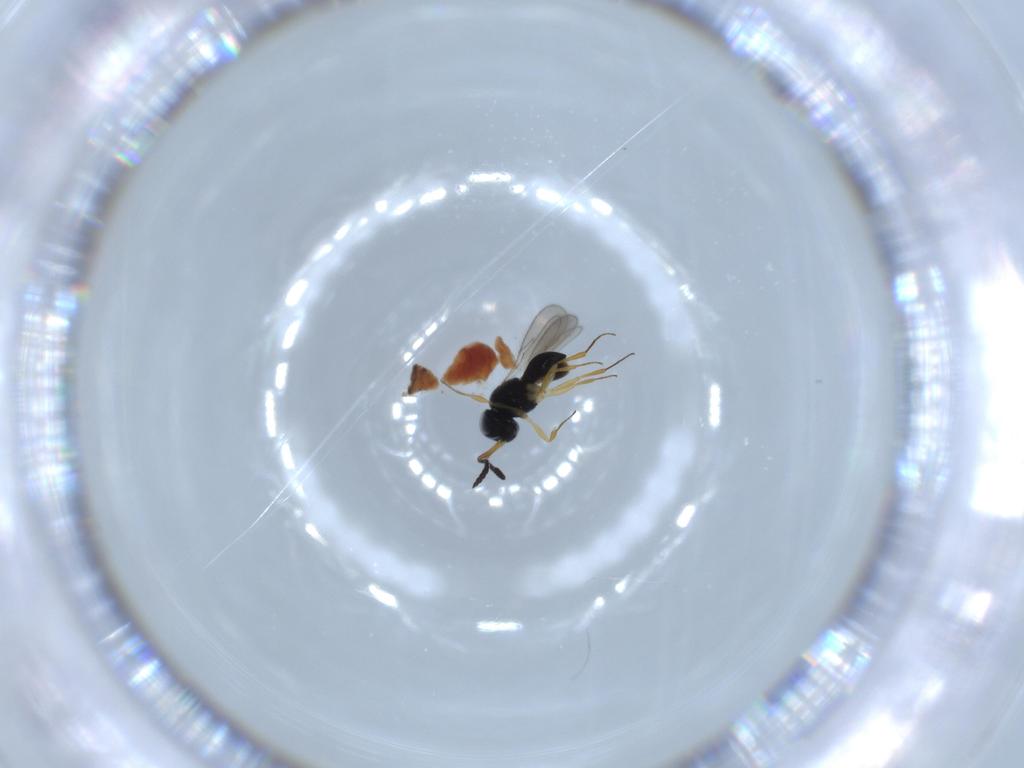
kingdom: Animalia
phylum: Arthropoda
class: Insecta
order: Hymenoptera
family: Scelionidae
